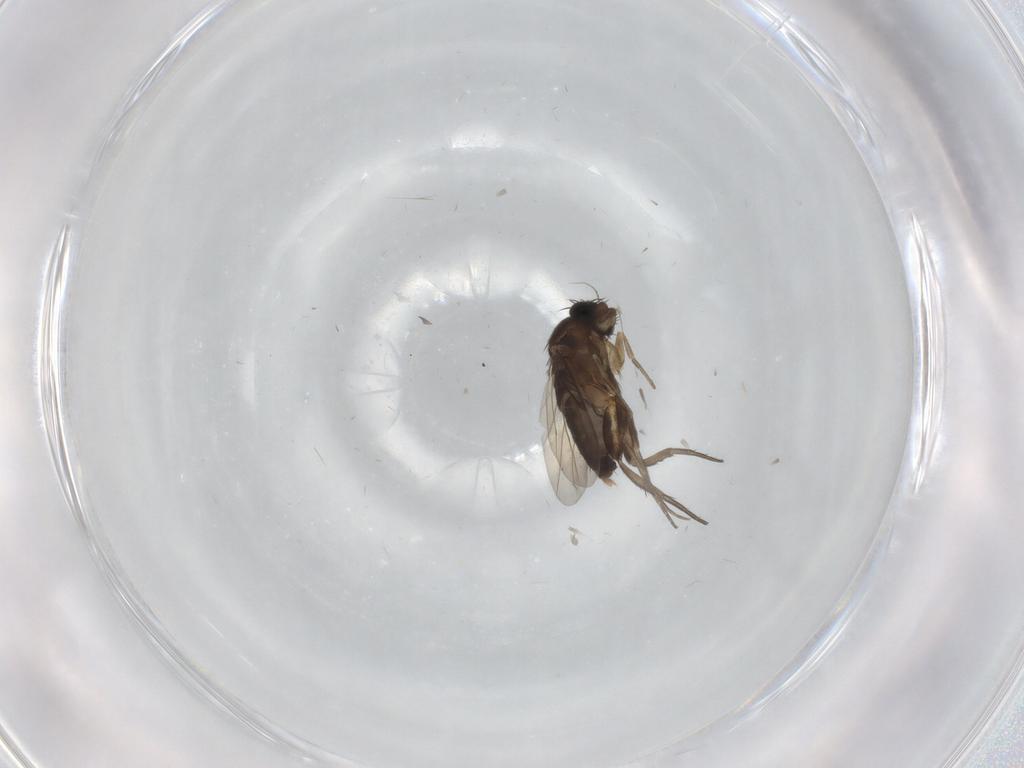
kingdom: Animalia
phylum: Arthropoda
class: Insecta
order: Diptera
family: Phoridae
